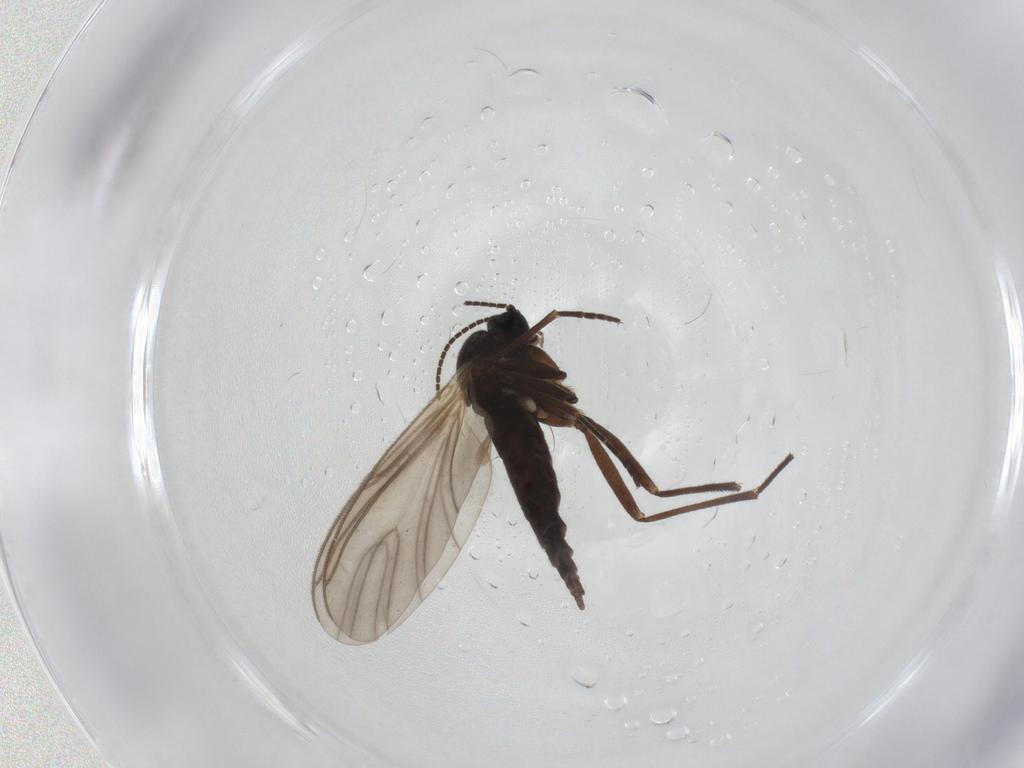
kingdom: Animalia
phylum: Arthropoda
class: Insecta
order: Diptera
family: Sciaridae
